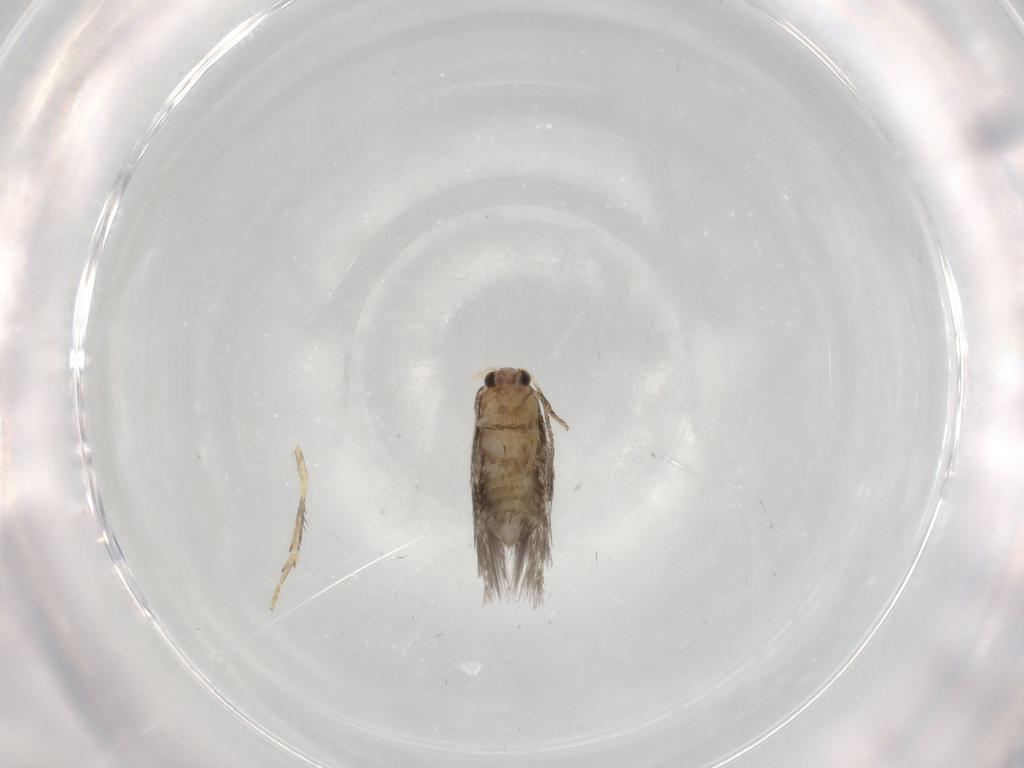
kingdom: Animalia
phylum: Arthropoda
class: Insecta
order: Lepidoptera
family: Nepticulidae
